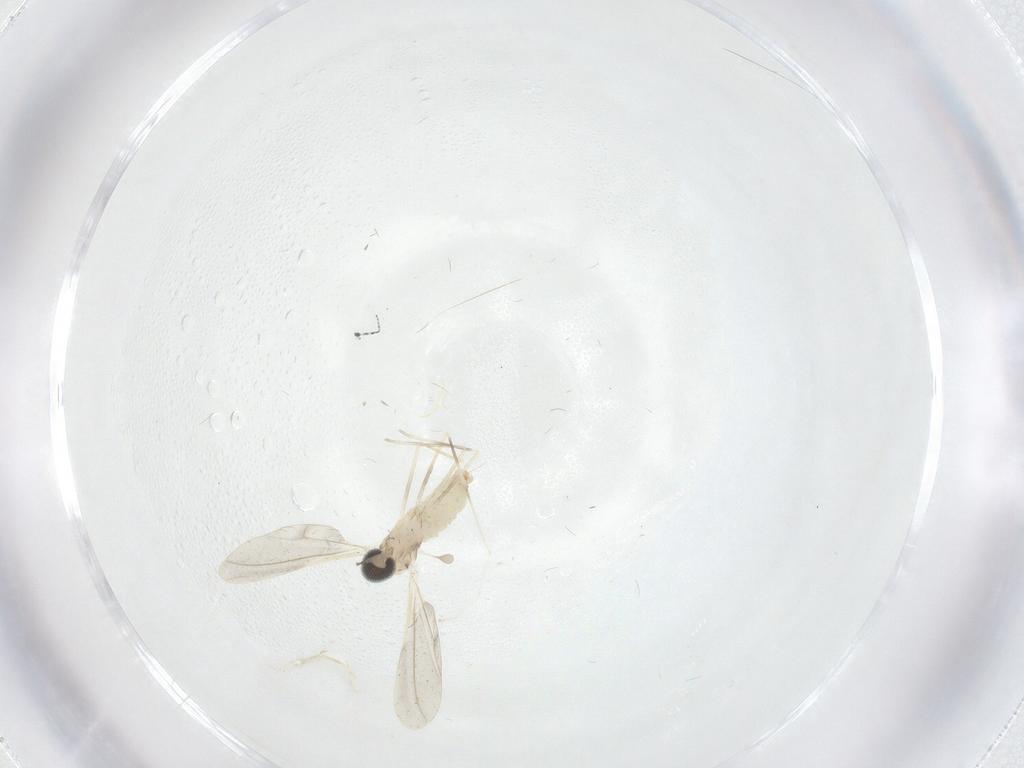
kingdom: Animalia
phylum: Arthropoda
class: Insecta
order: Diptera
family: Cecidomyiidae
